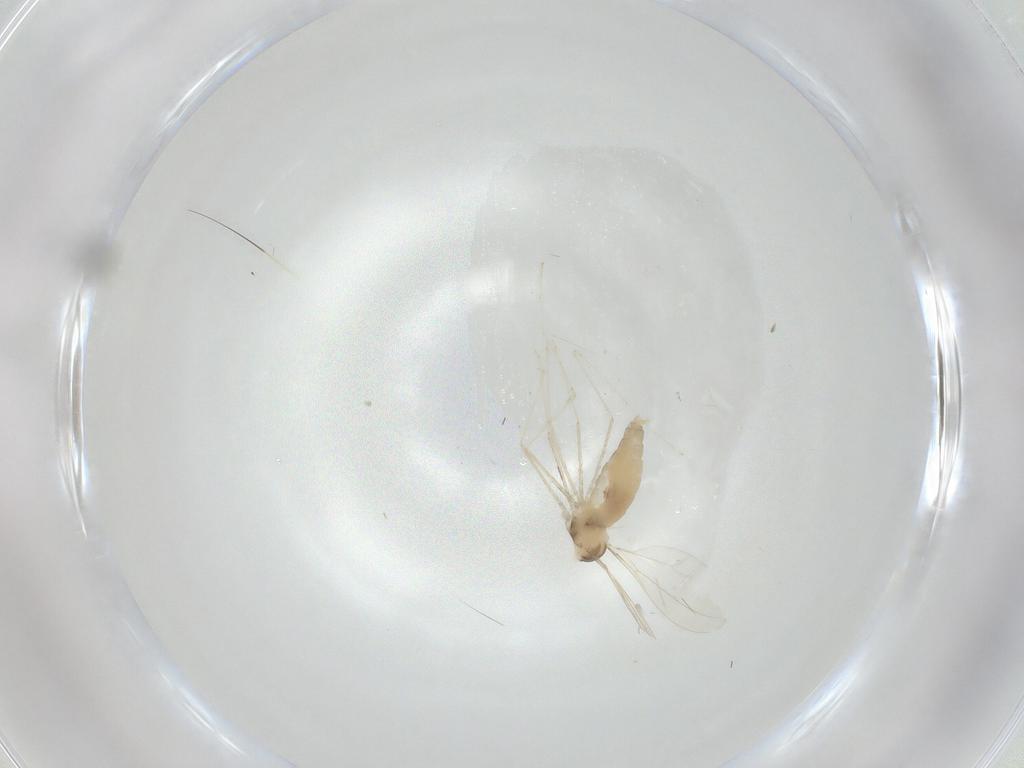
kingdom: Animalia
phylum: Arthropoda
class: Insecta
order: Diptera
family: Cecidomyiidae
